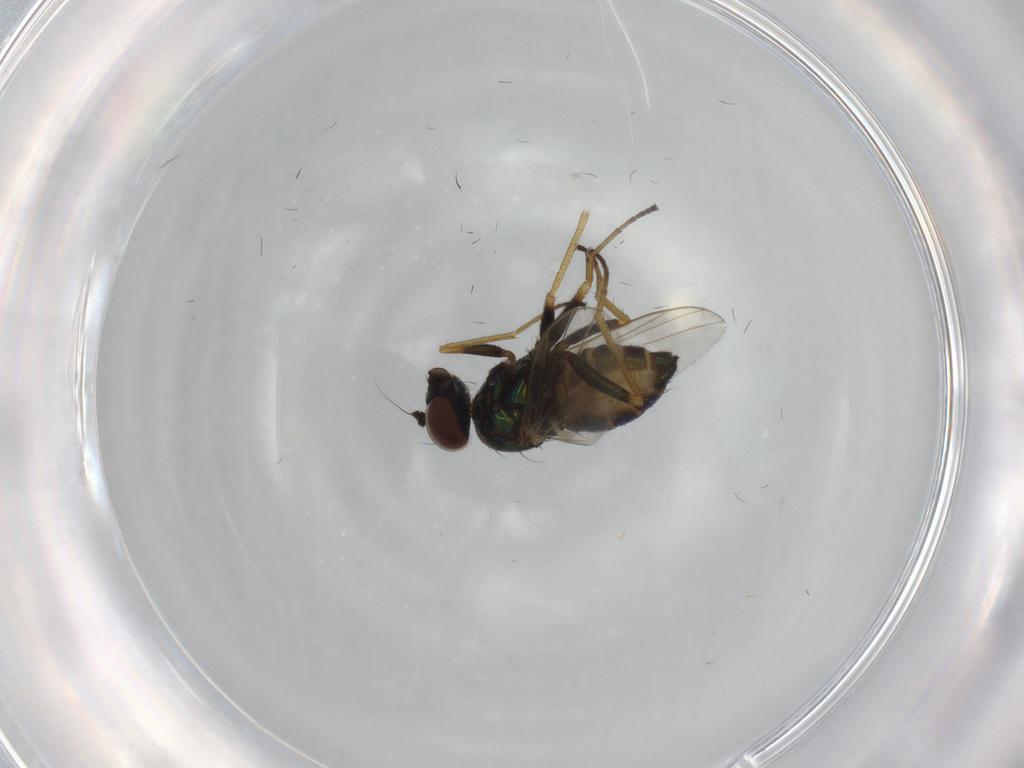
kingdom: Animalia
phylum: Arthropoda
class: Insecta
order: Diptera
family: Dolichopodidae
